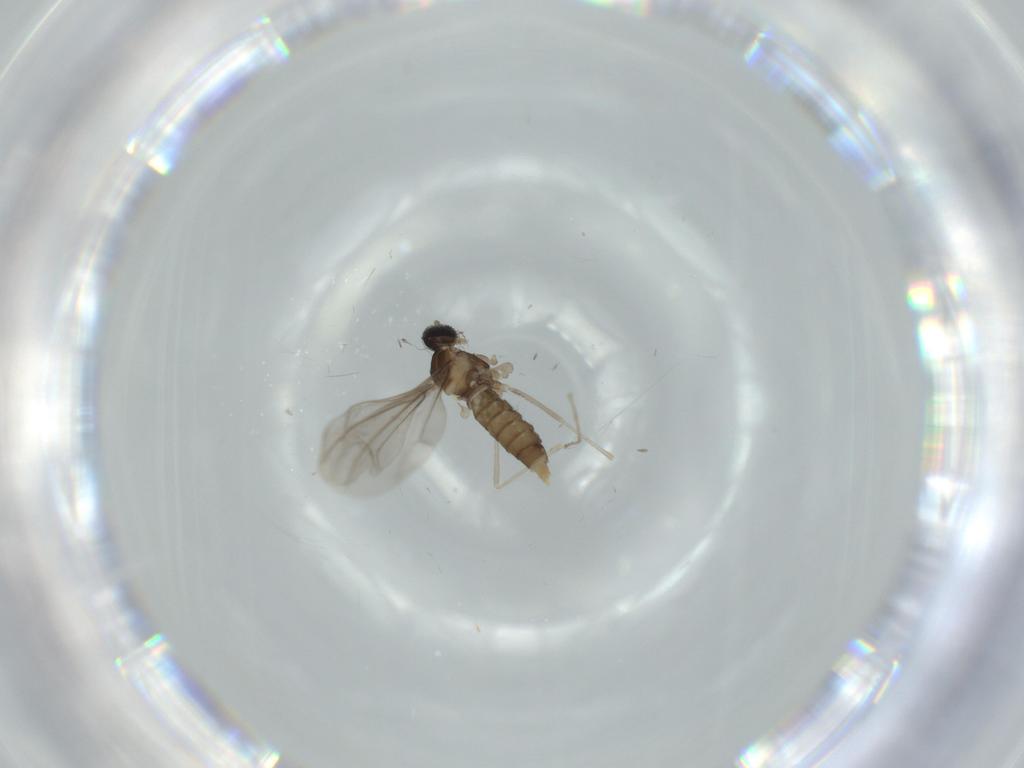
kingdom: Animalia
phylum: Arthropoda
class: Insecta
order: Diptera
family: Cecidomyiidae
